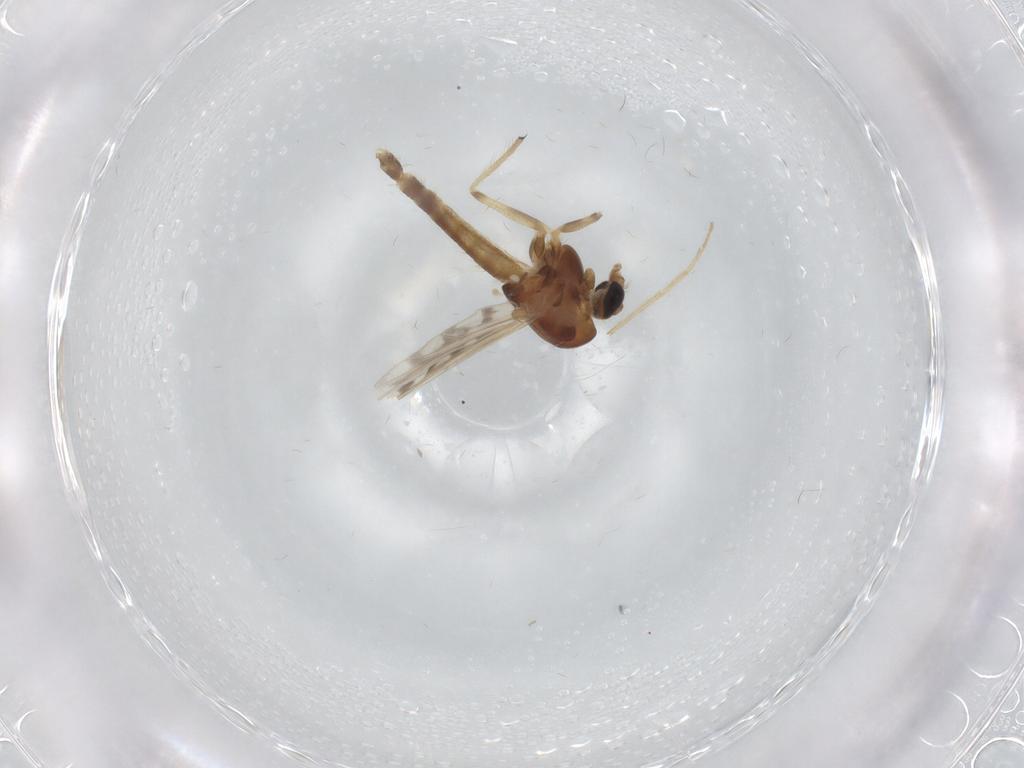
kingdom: Animalia
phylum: Arthropoda
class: Insecta
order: Diptera
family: Chironomidae
